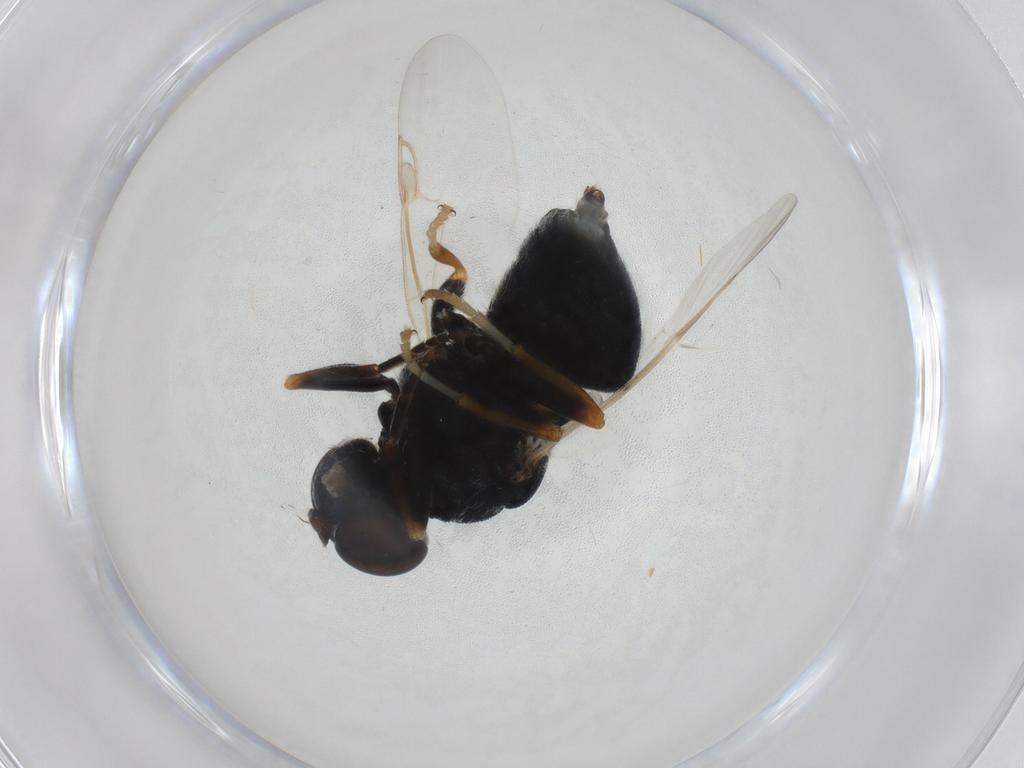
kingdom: Animalia
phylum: Arthropoda
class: Insecta
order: Diptera
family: Stratiomyidae
